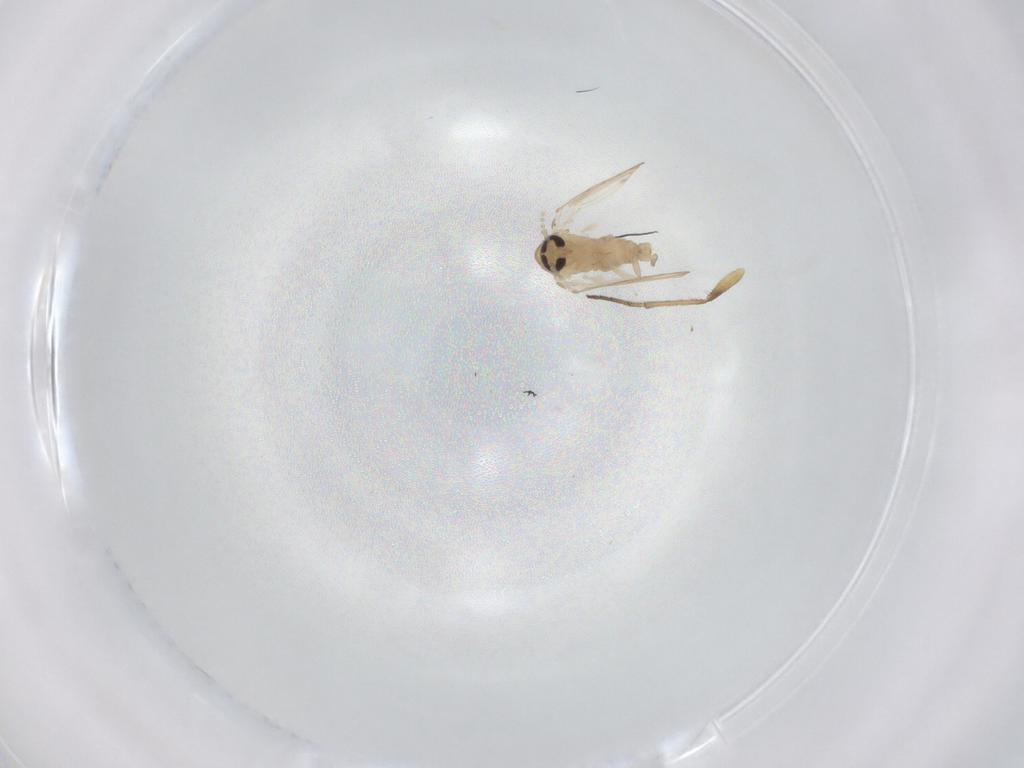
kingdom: Animalia
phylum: Arthropoda
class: Insecta
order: Diptera
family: Psychodidae
